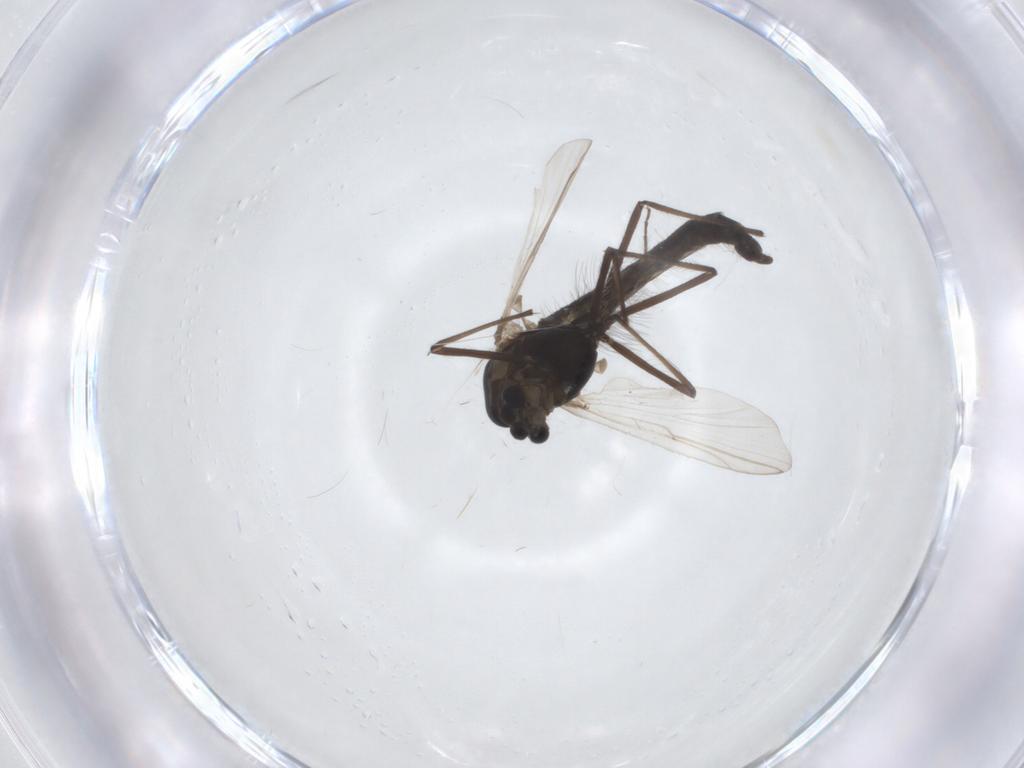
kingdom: Animalia
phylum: Arthropoda
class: Insecta
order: Diptera
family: Chironomidae
